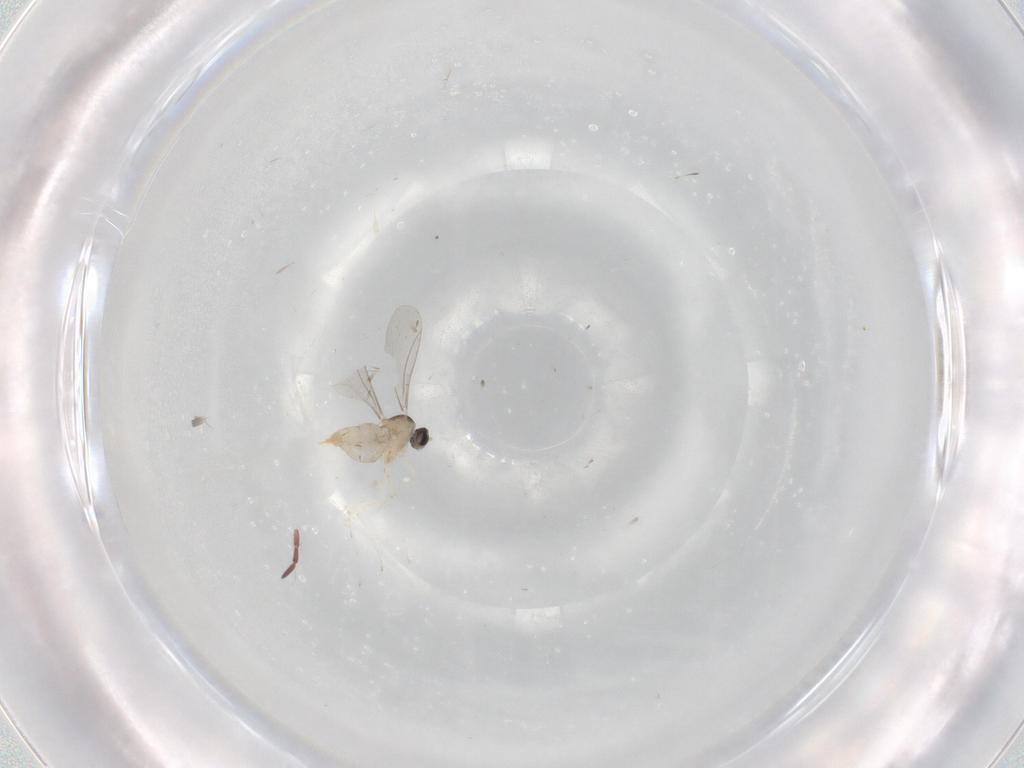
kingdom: Animalia
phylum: Arthropoda
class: Insecta
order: Diptera
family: Cecidomyiidae
